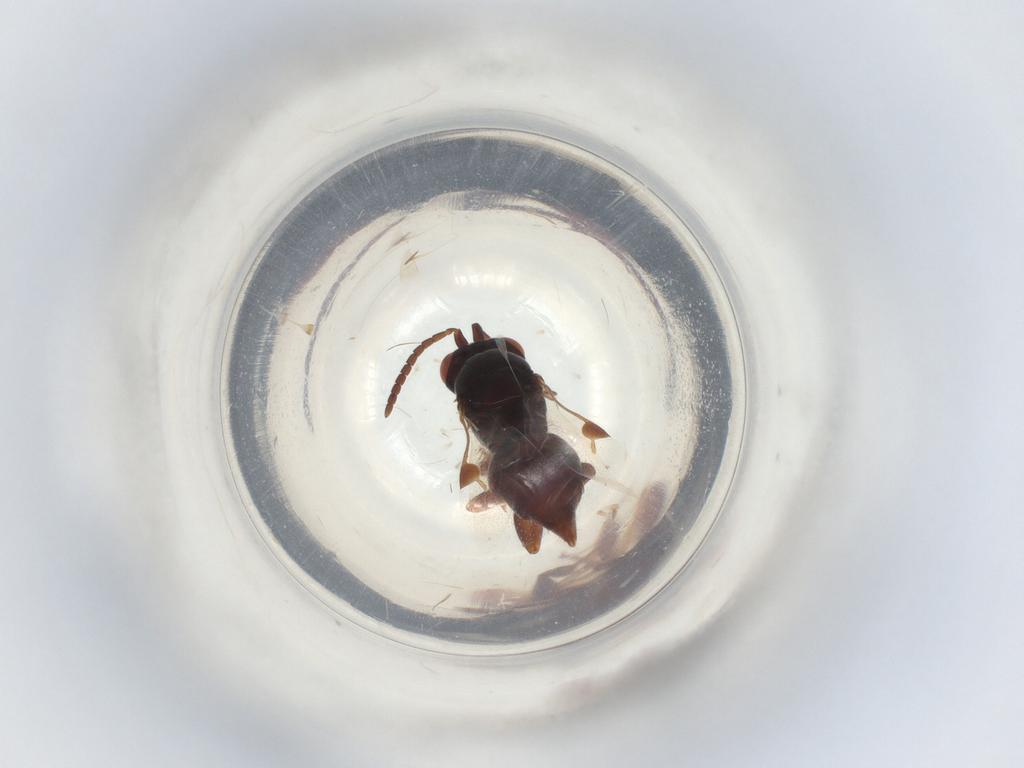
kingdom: Animalia
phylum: Arthropoda
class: Insecta
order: Hymenoptera
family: Megaspilidae
